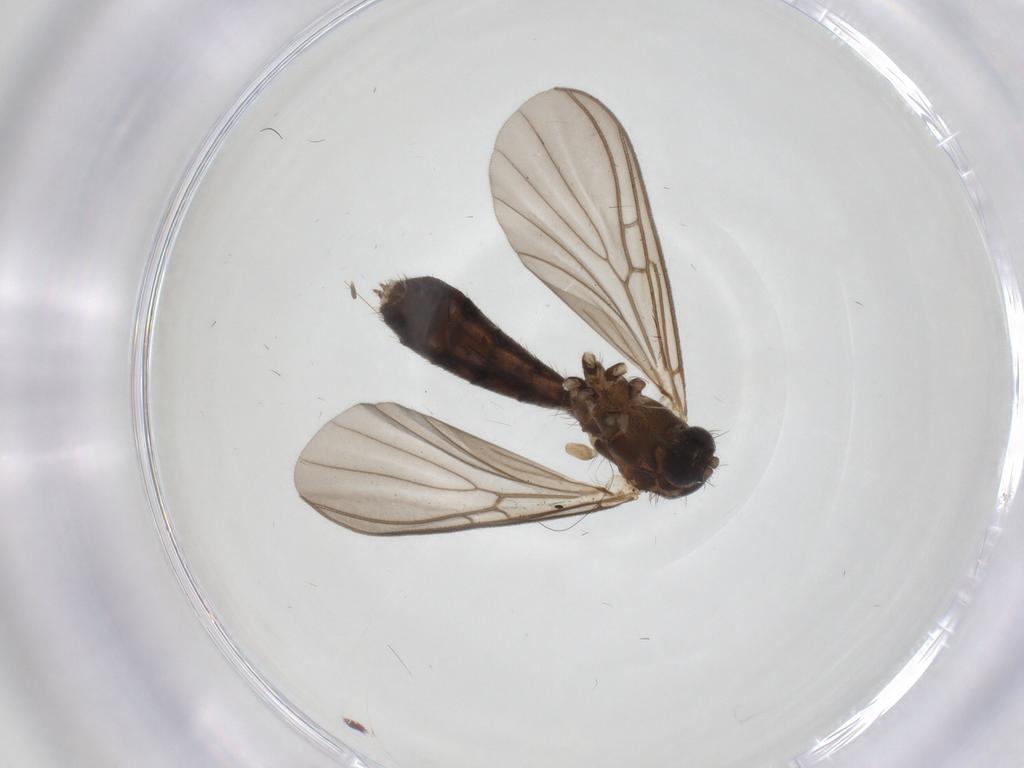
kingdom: Animalia
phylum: Arthropoda
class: Insecta
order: Diptera
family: Mycetophilidae
